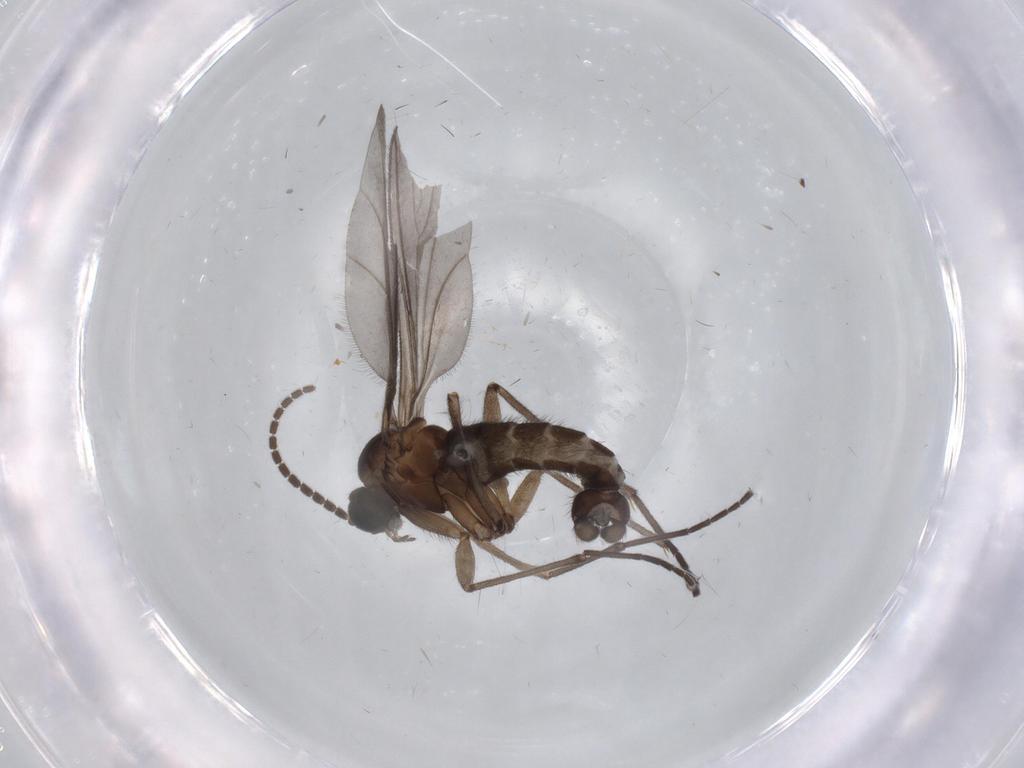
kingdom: Animalia
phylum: Arthropoda
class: Insecta
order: Diptera
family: Sciaridae
